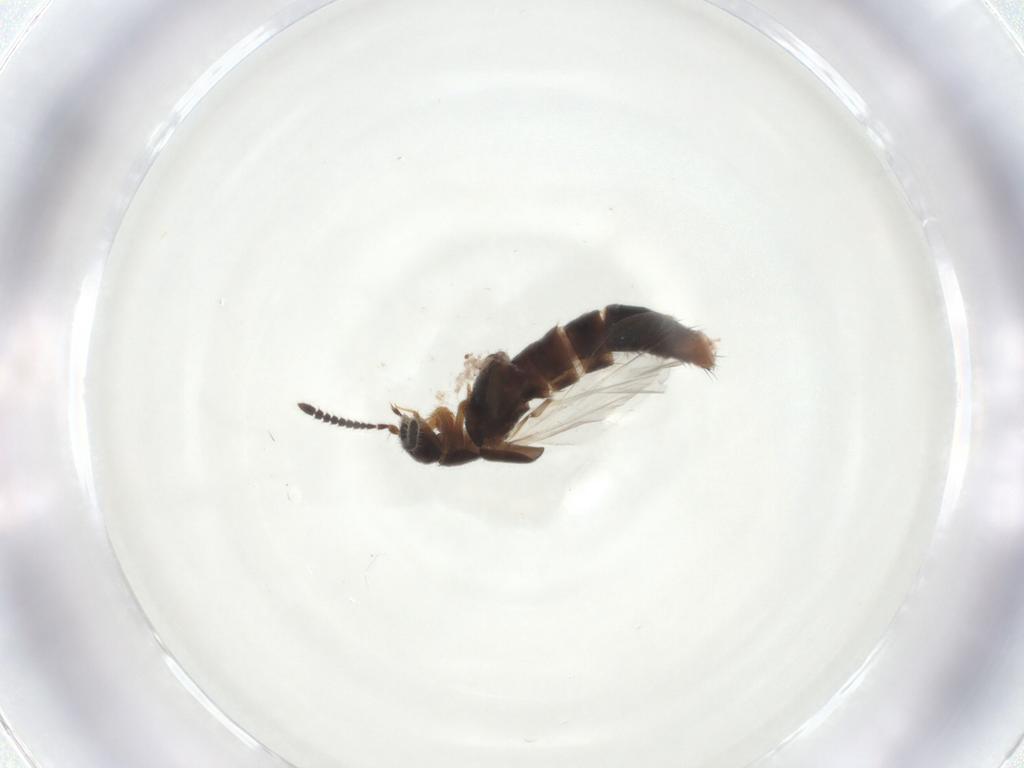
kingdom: Animalia
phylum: Arthropoda
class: Insecta
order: Coleoptera
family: Staphylinidae
